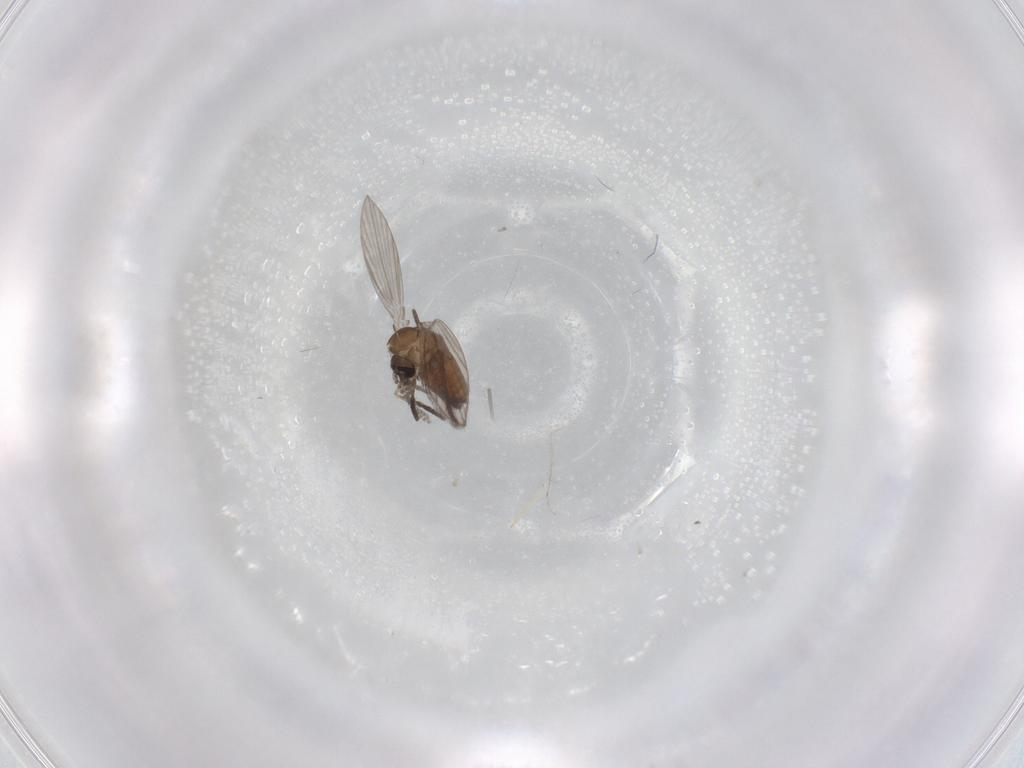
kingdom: Animalia
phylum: Arthropoda
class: Insecta
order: Diptera
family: Psychodidae
